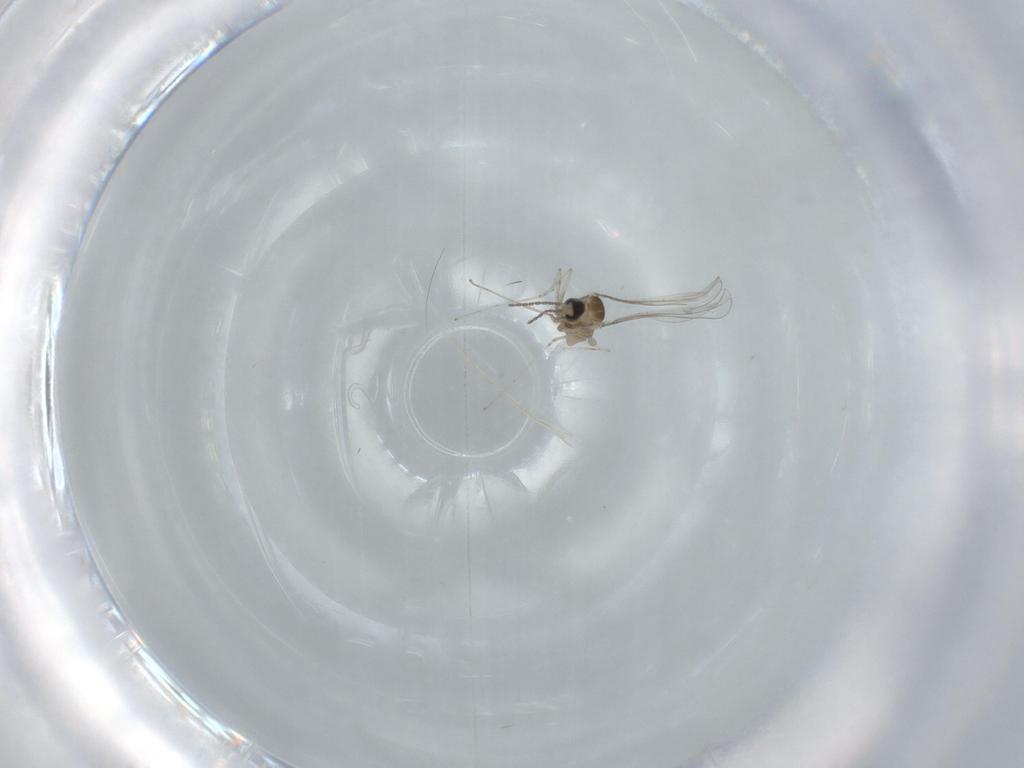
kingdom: Animalia
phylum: Arthropoda
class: Insecta
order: Diptera
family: Cecidomyiidae
